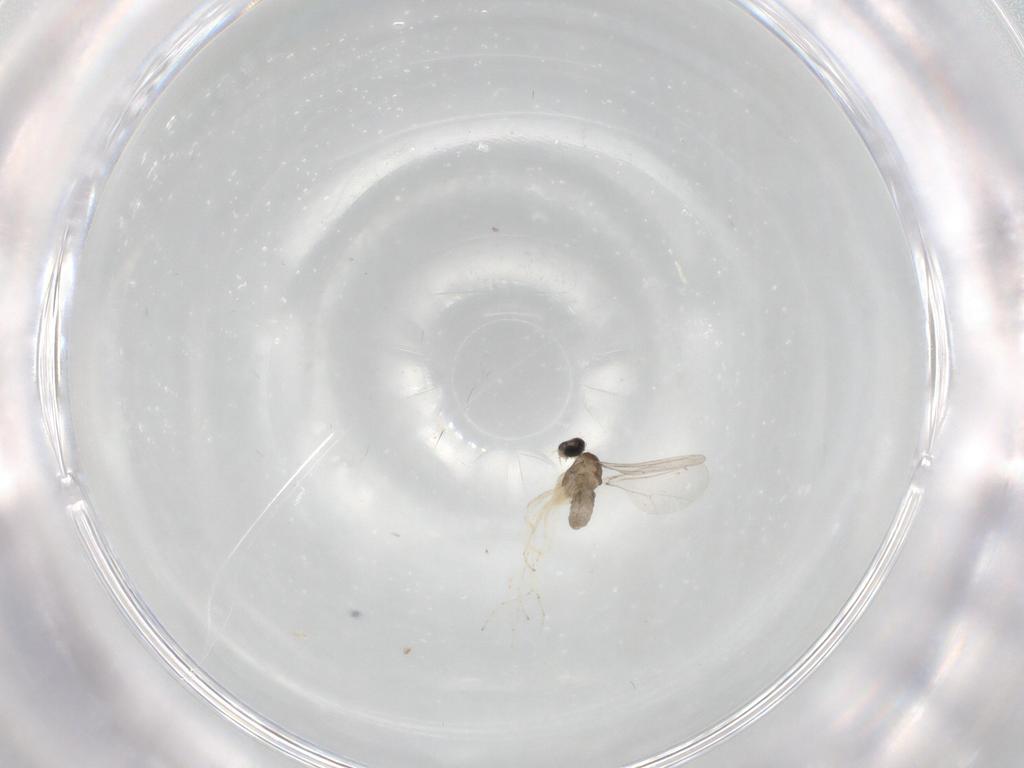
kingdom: Animalia
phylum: Arthropoda
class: Insecta
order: Diptera
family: Cecidomyiidae
